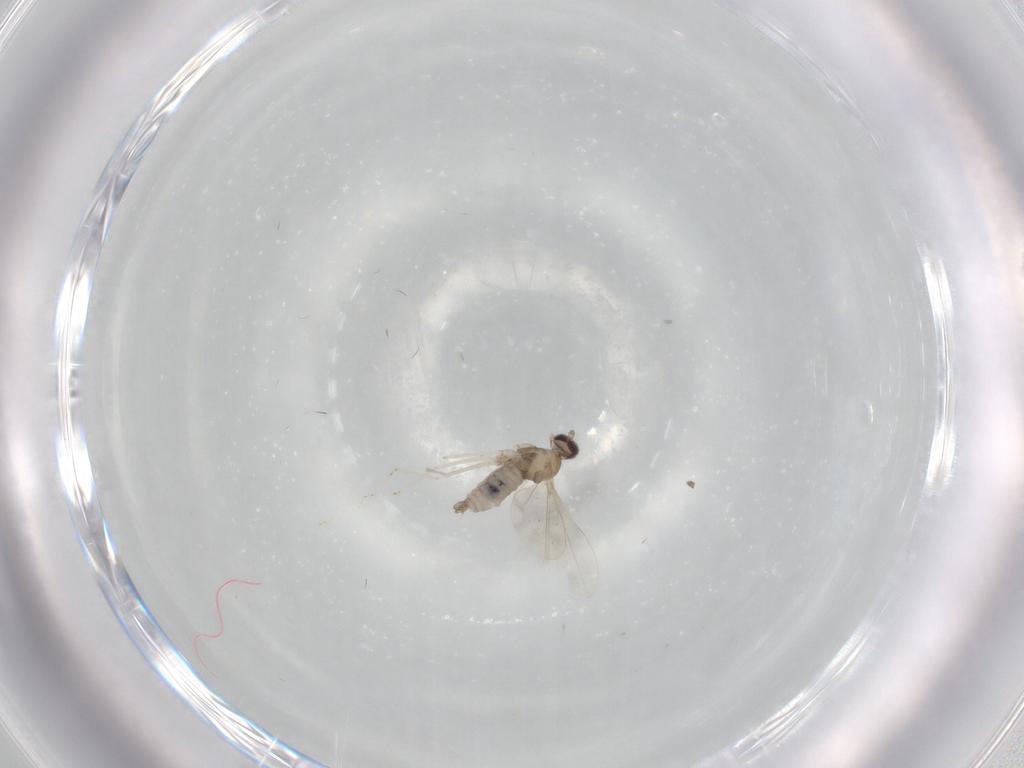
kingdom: Animalia
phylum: Arthropoda
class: Insecta
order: Diptera
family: Cecidomyiidae
